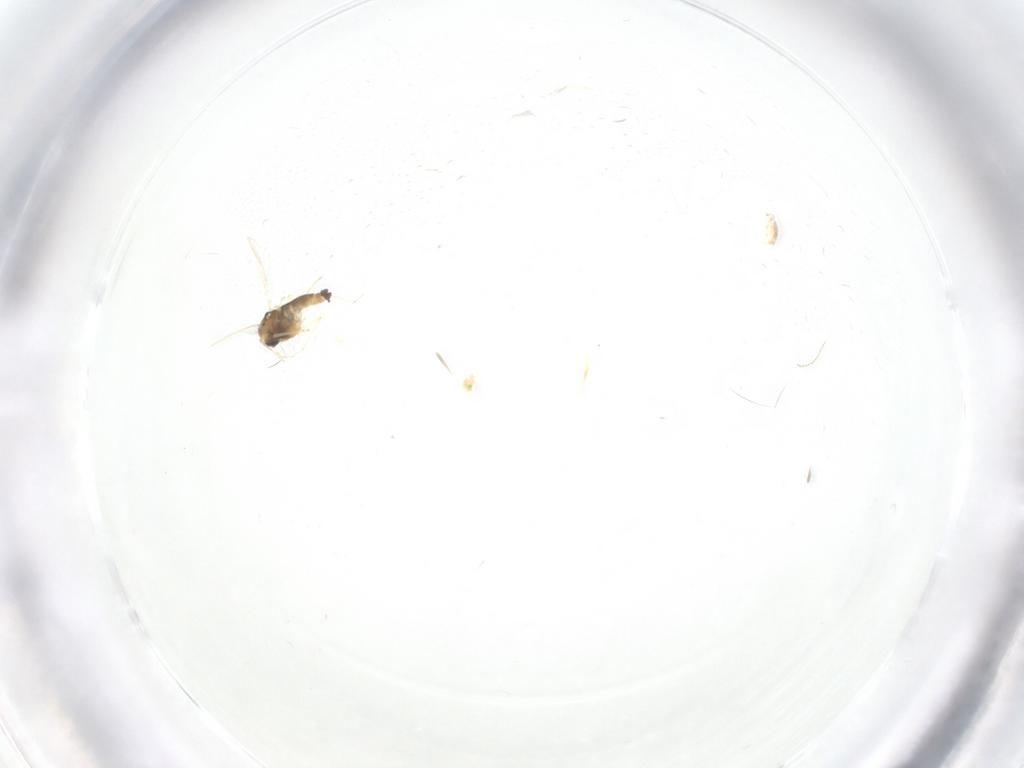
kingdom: Animalia
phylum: Arthropoda
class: Insecta
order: Diptera
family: Chironomidae
